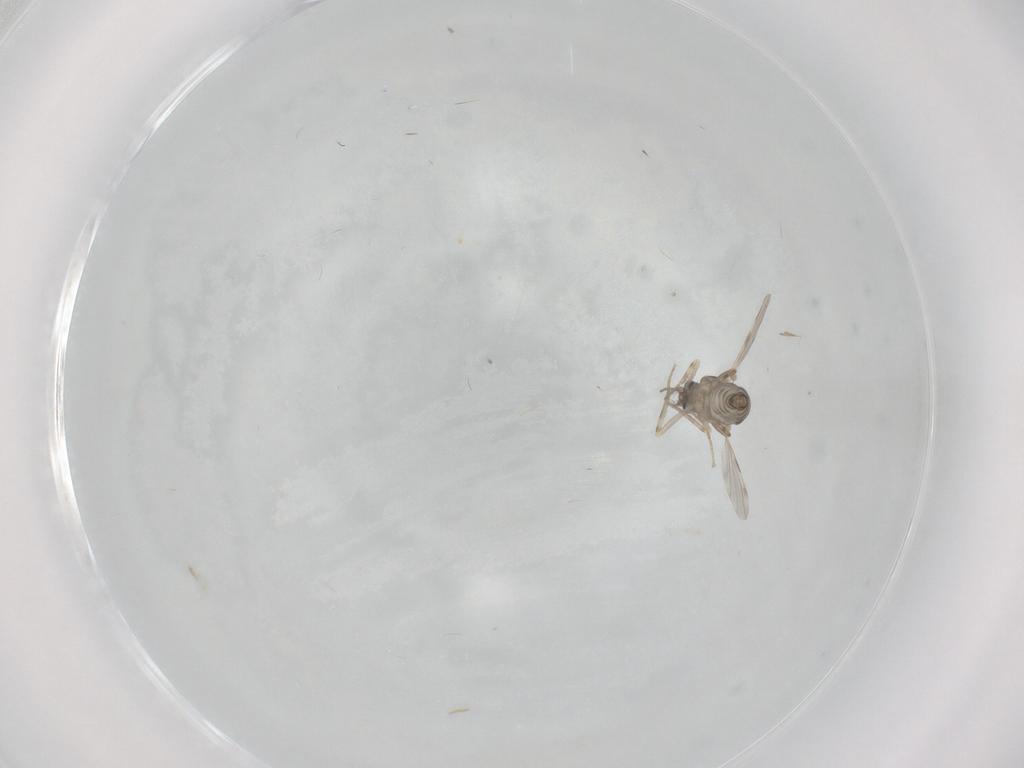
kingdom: Animalia
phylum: Arthropoda
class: Insecta
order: Diptera
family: Ceratopogonidae
